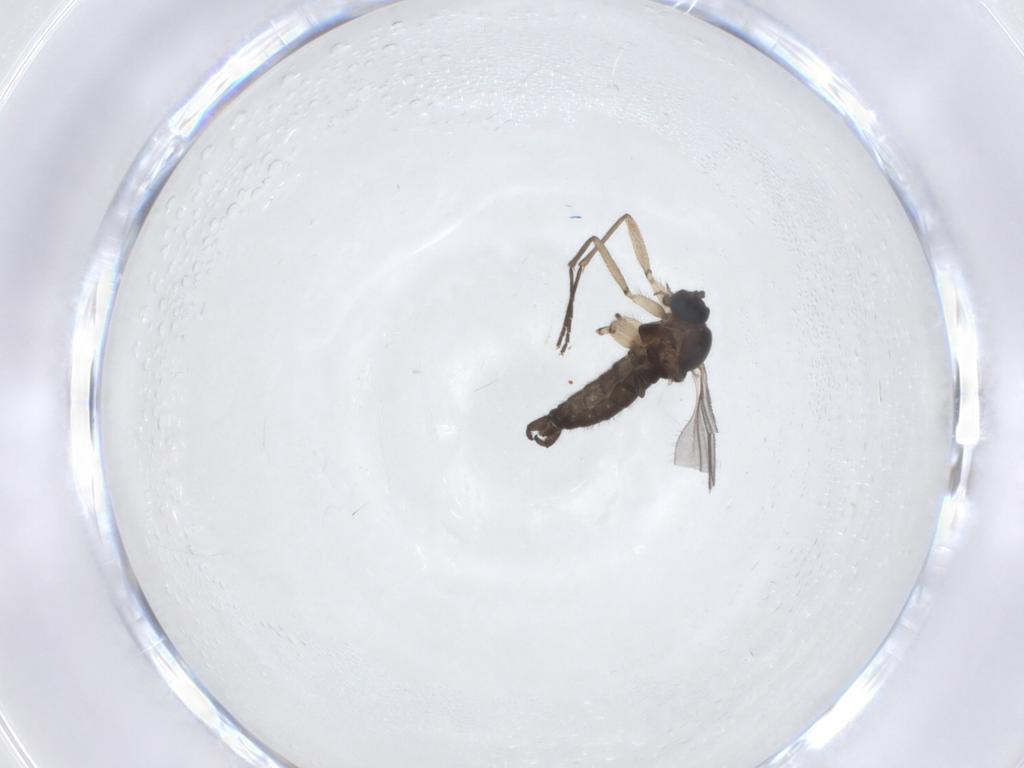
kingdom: Animalia
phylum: Arthropoda
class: Insecta
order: Diptera
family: Sciaridae
